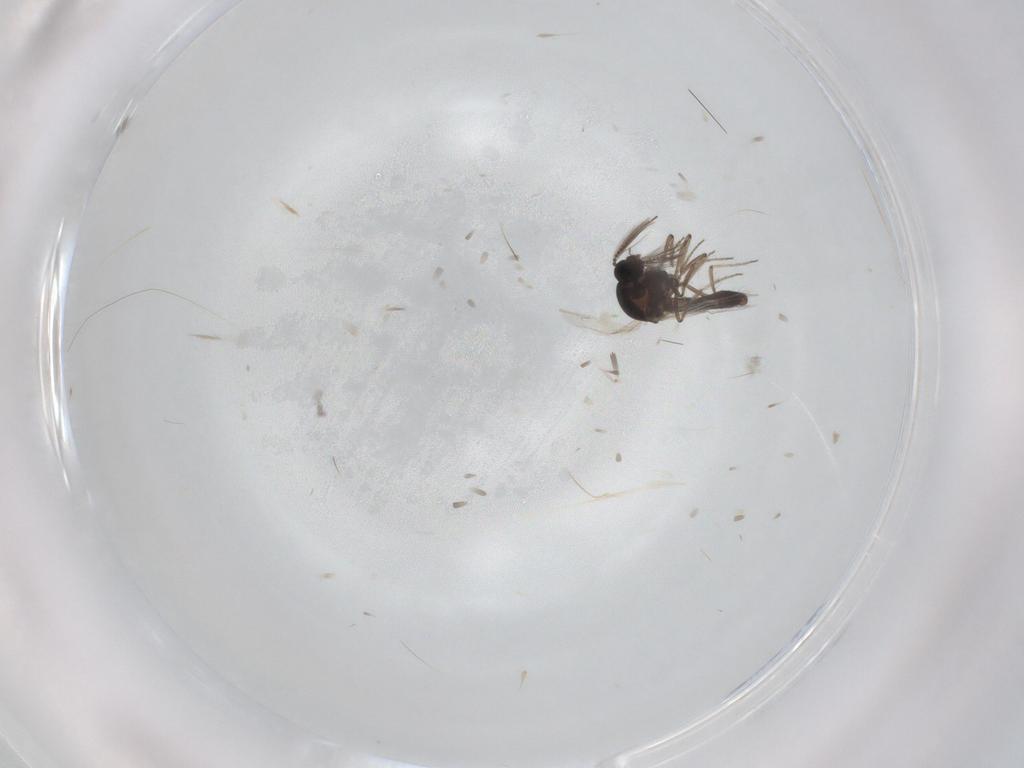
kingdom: Animalia
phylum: Arthropoda
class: Insecta
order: Diptera
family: Ceratopogonidae
